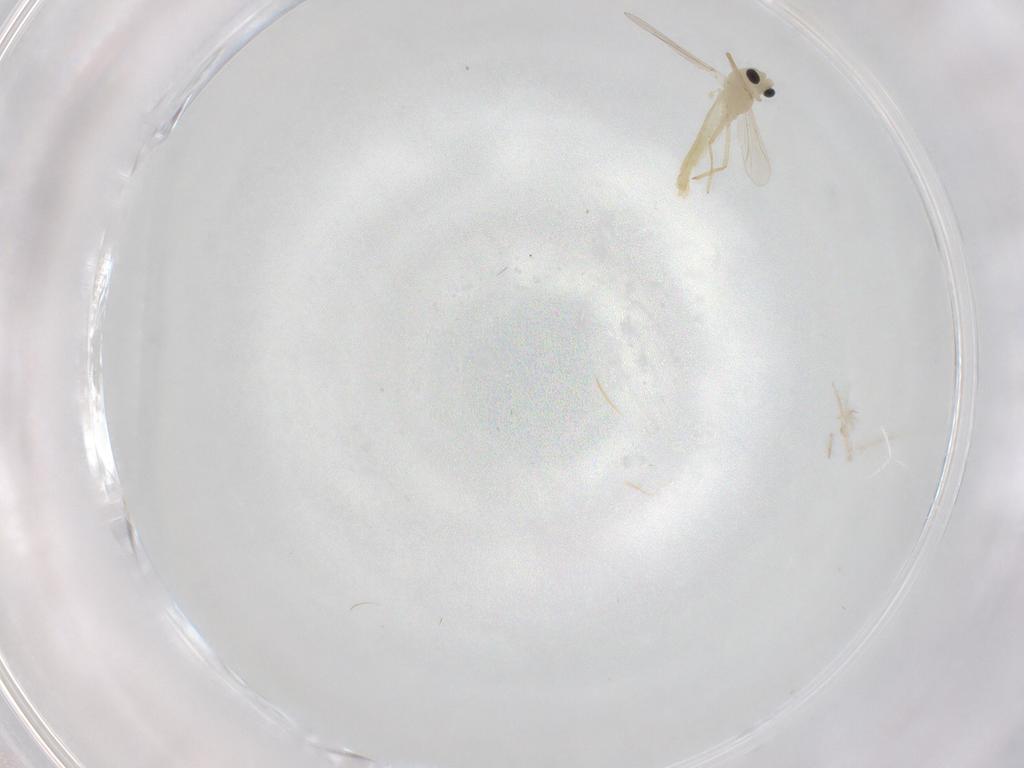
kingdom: Animalia
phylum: Arthropoda
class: Insecta
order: Diptera
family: Chironomidae
